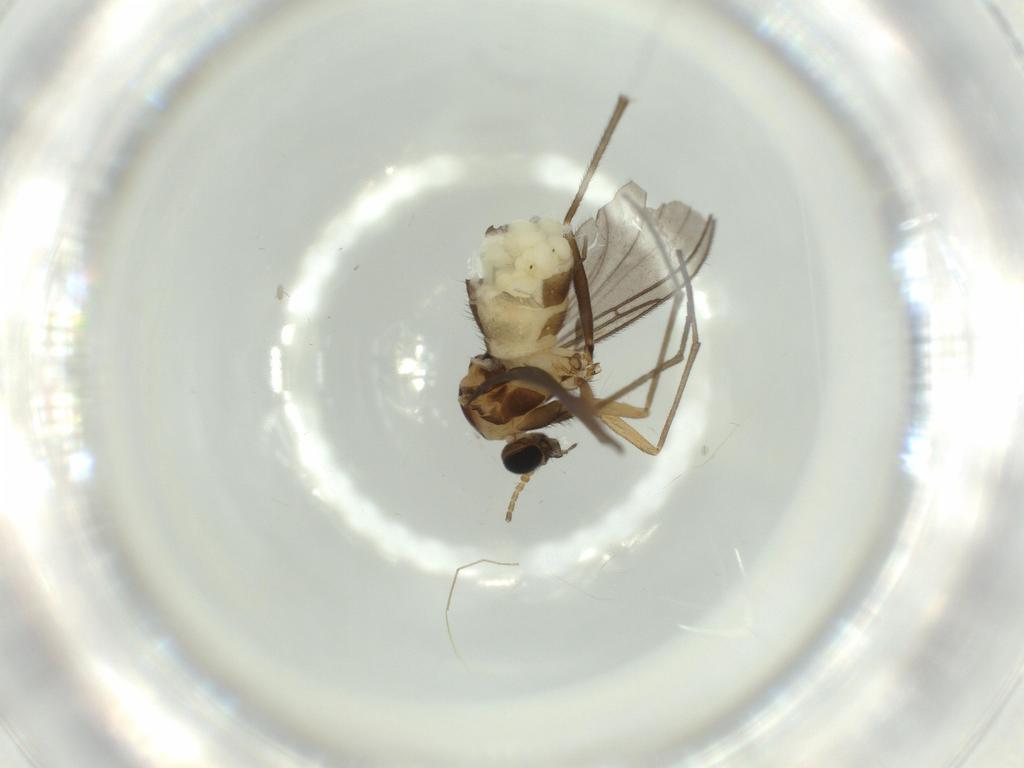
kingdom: Animalia
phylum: Arthropoda
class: Insecta
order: Diptera
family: Sciaridae
